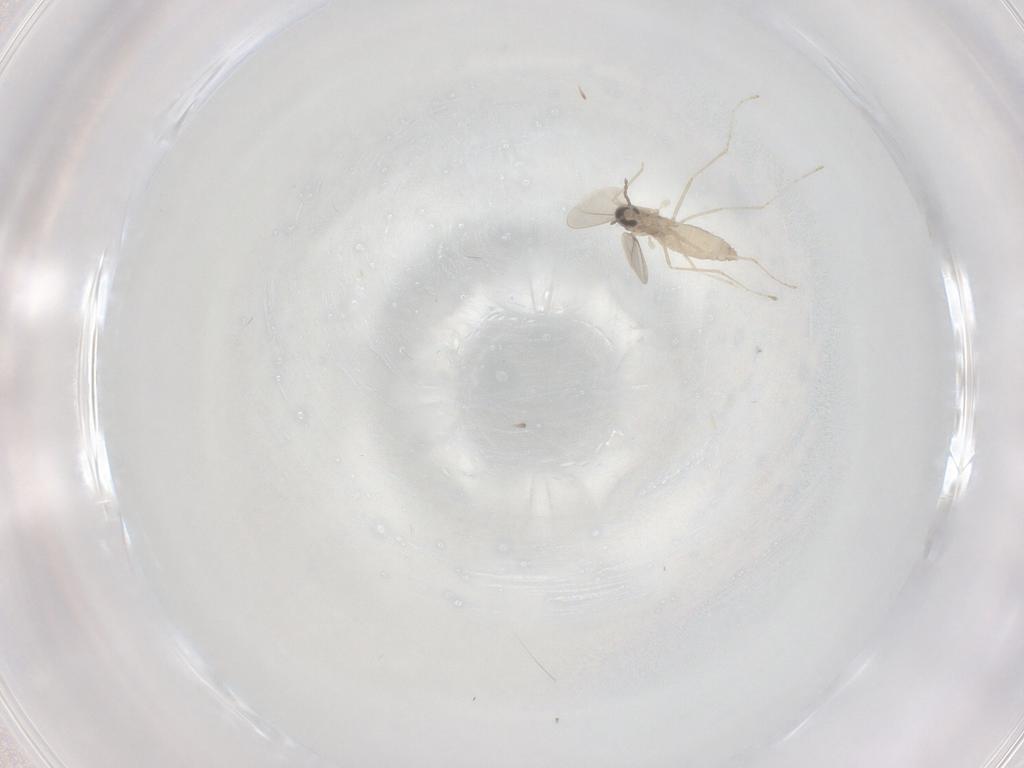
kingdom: Animalia
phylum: Arthropoda
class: Insecta
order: Diptera
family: Cecidomyiidae
